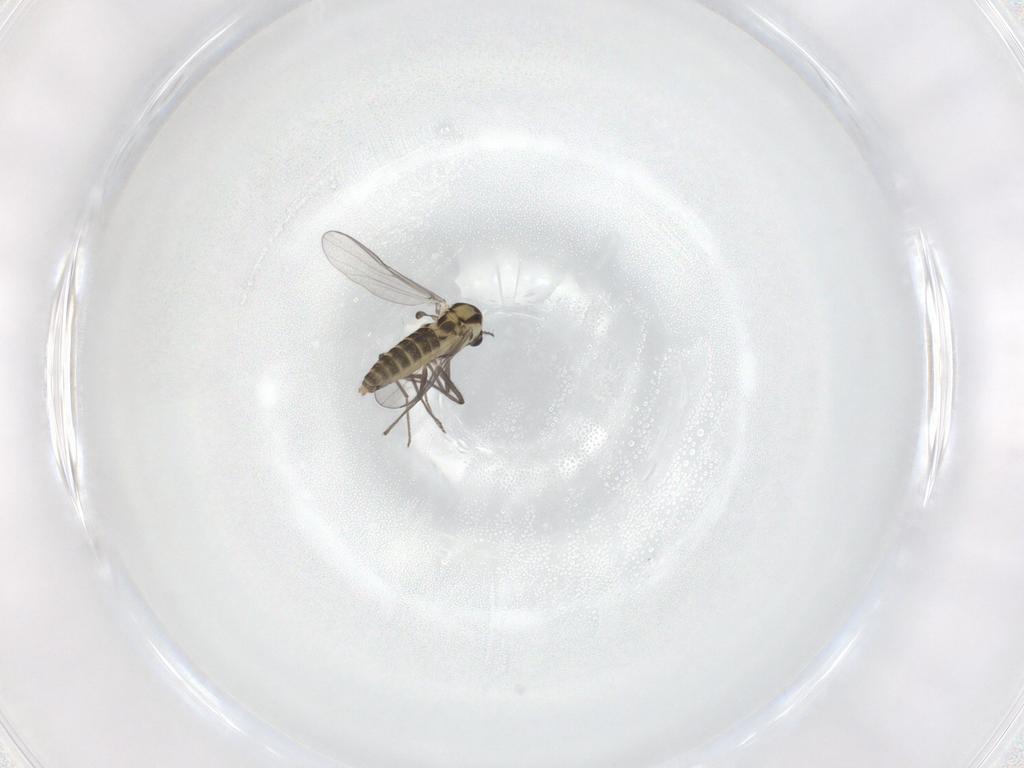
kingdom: Animalia
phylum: Arthropoda
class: Insecta
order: Diptera
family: Chironomidae
